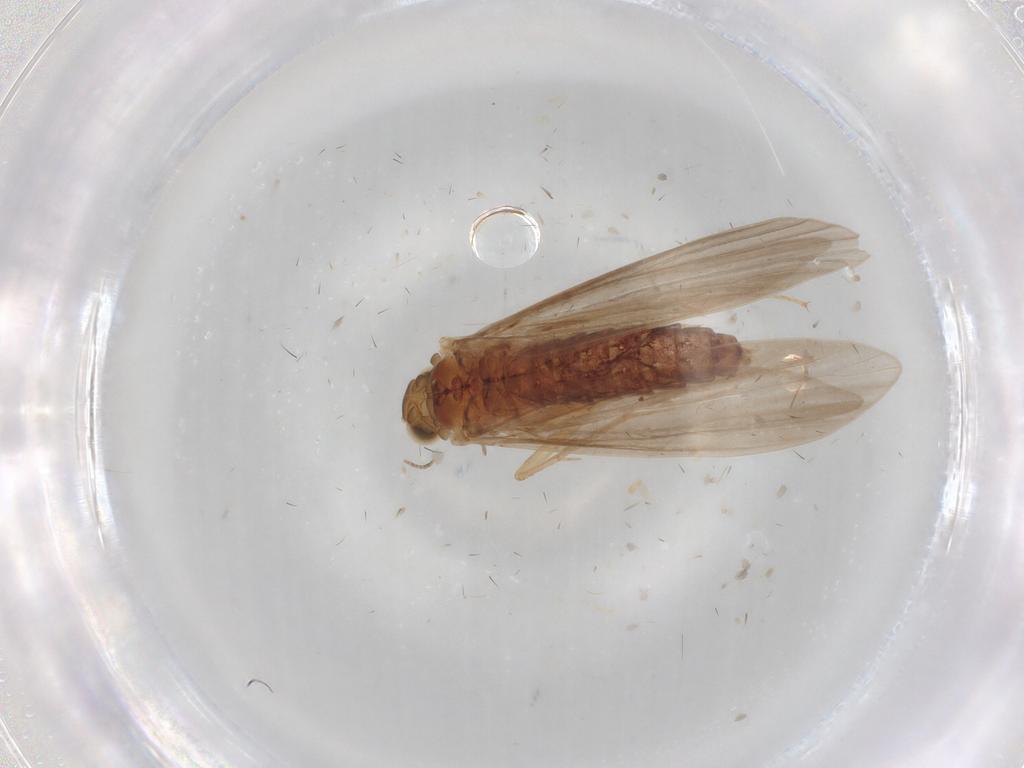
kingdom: Animalia
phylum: Arthropoda
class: Insecta
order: Trichoptera
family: Psychomyiidae
